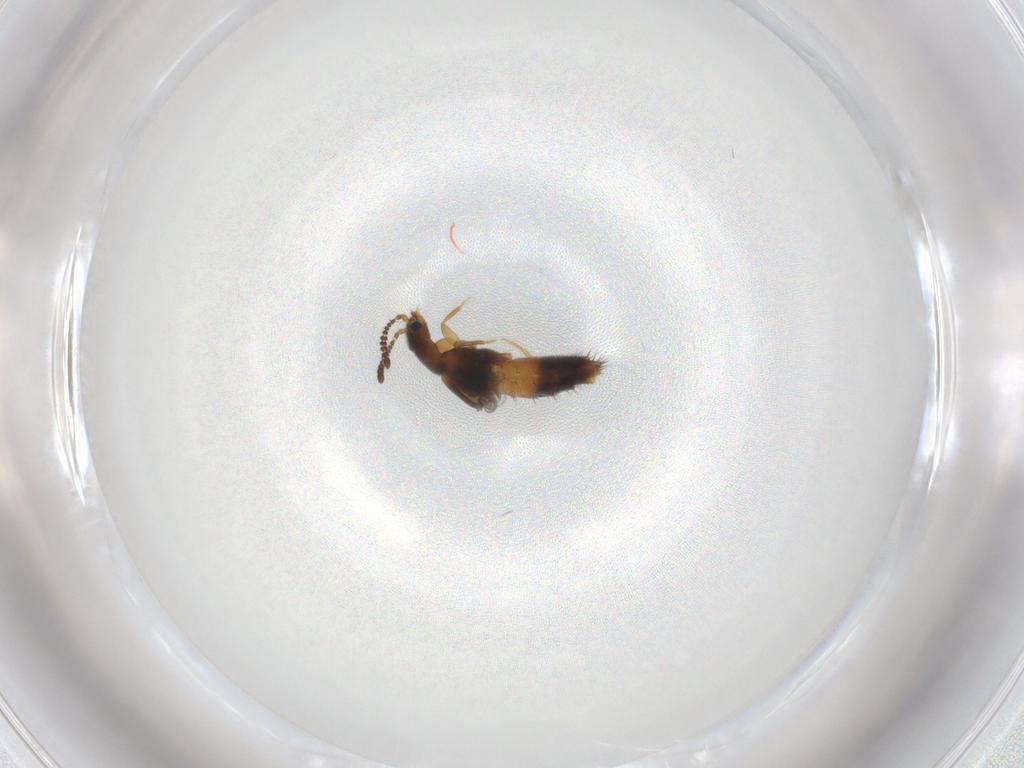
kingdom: Animalia
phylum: Arthropoda
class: Insecta
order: Coleoptera
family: Staphylinidae
